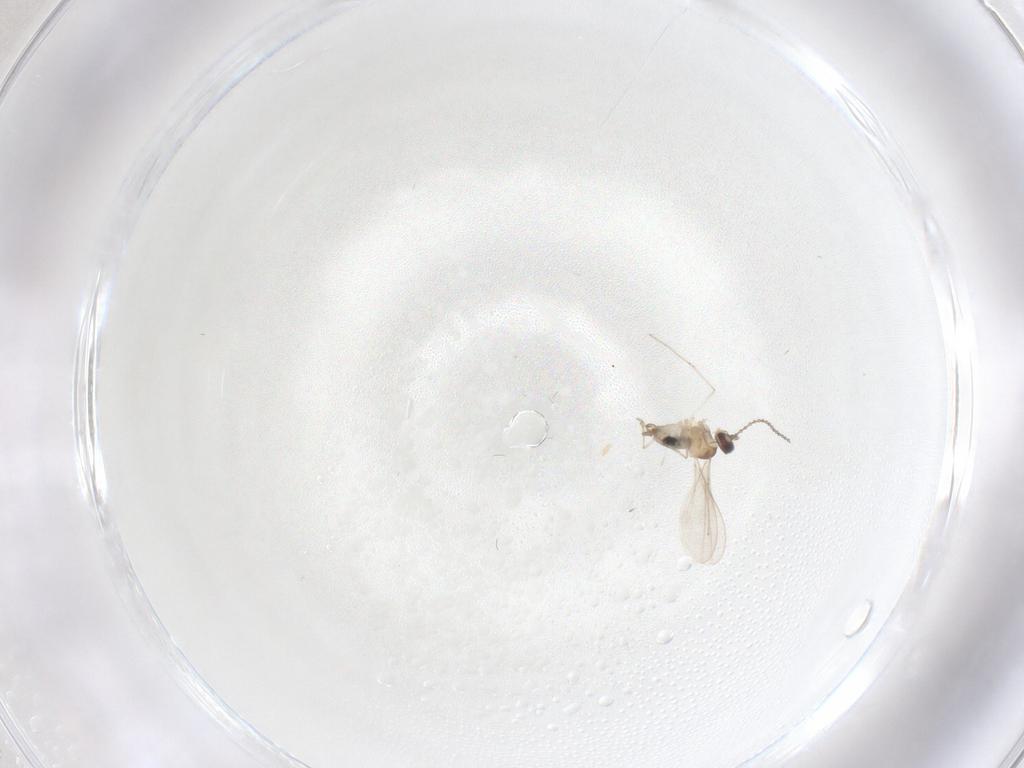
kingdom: Animalia
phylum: Arthropoda
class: Insecta
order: Diptera
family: Cecidomyiidae
